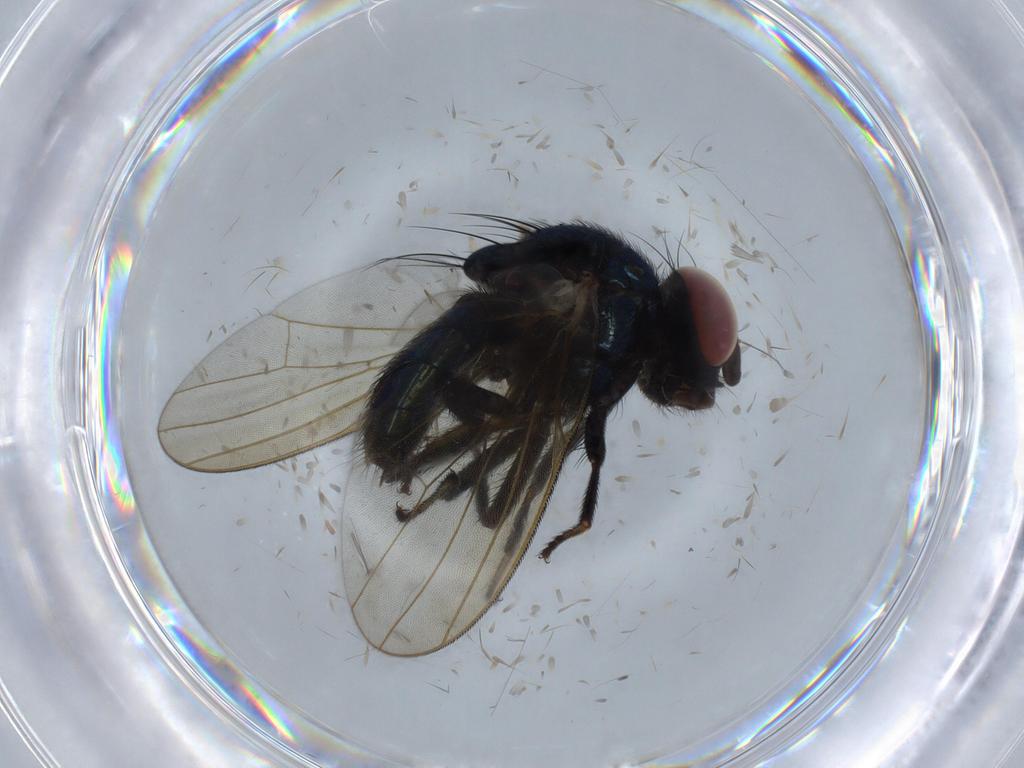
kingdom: Animalia
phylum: Arthropoda
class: Insecta
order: Diptera
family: Lonchaeidae
